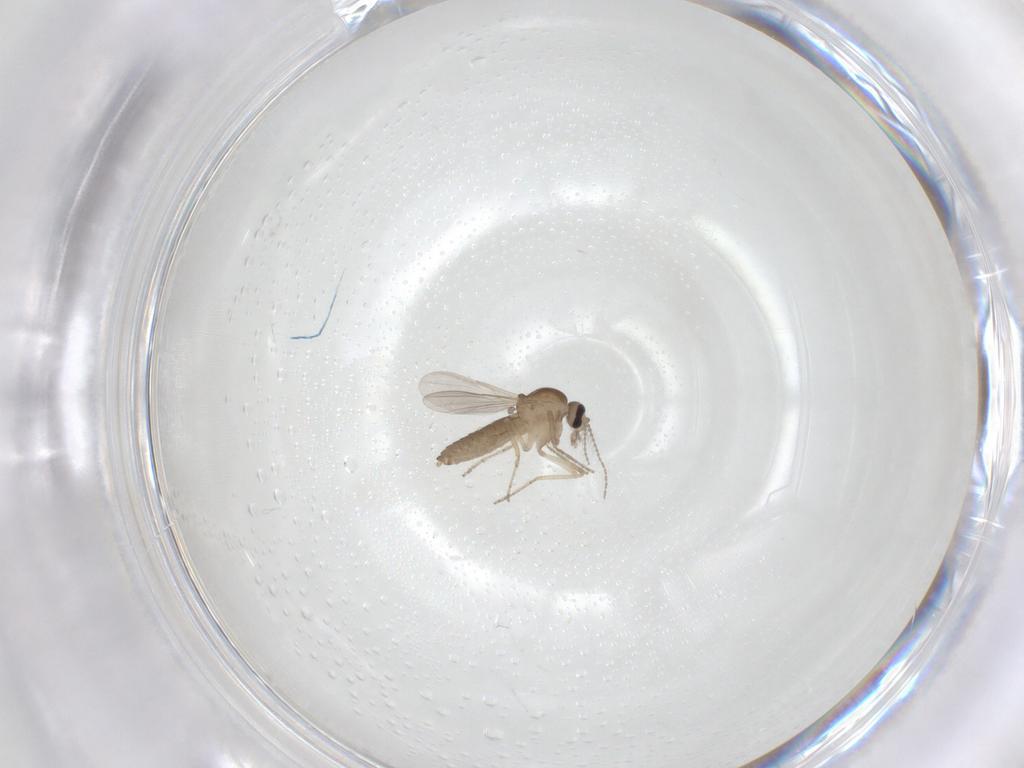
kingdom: Animalia
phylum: Arthropoda
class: Insecta
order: Diptera
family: Ceratopogonidae
